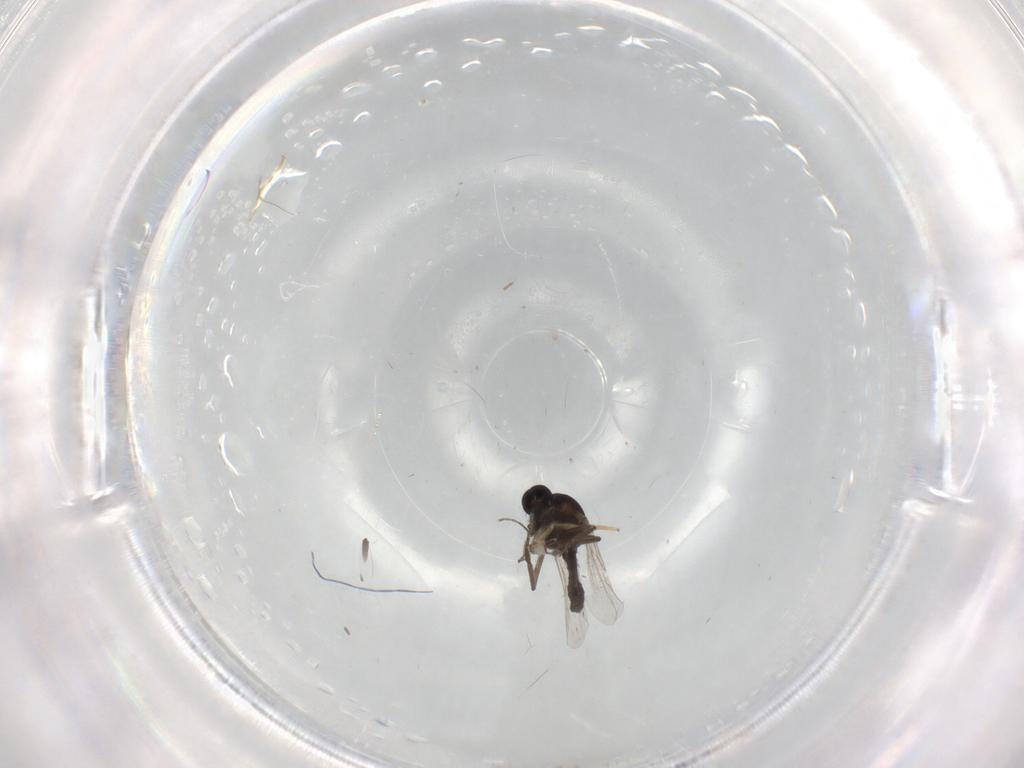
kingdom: Animalia
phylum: Arthropoda
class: Insecta
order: Diptera
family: Ceratopogonidae
